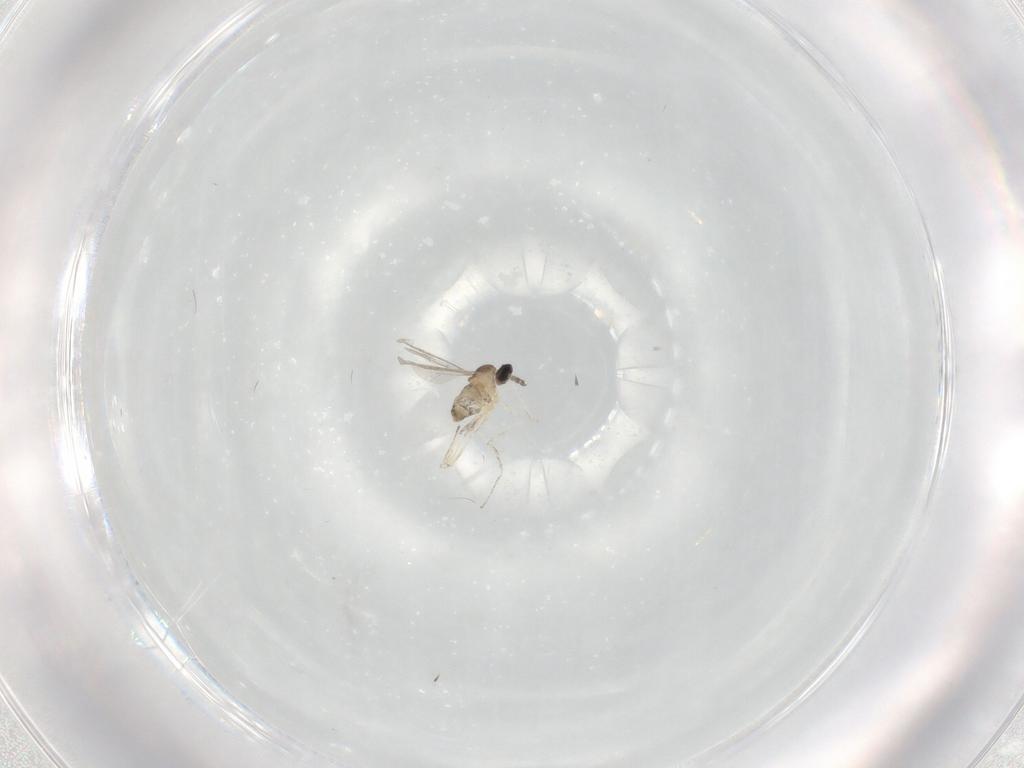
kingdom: Animalia
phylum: Arthropoda
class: Insecta
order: Diptera
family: Cecidomyiidae
